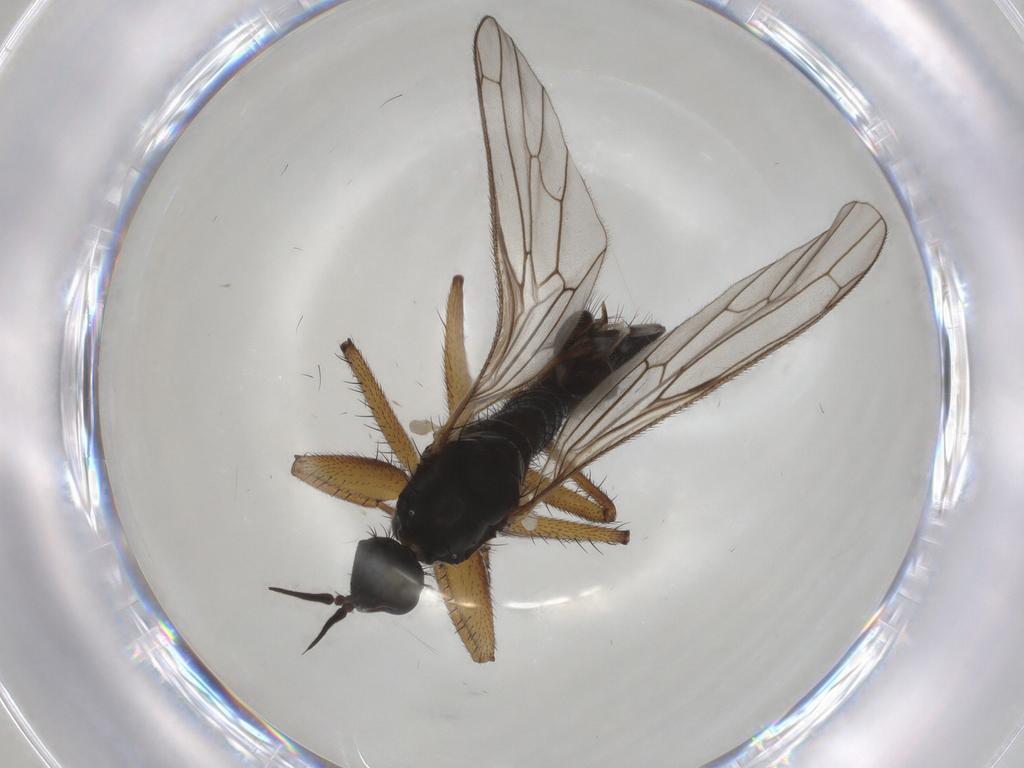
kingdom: Animalia
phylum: Arthropoda
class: Insecta
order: Diptera
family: Empididae
